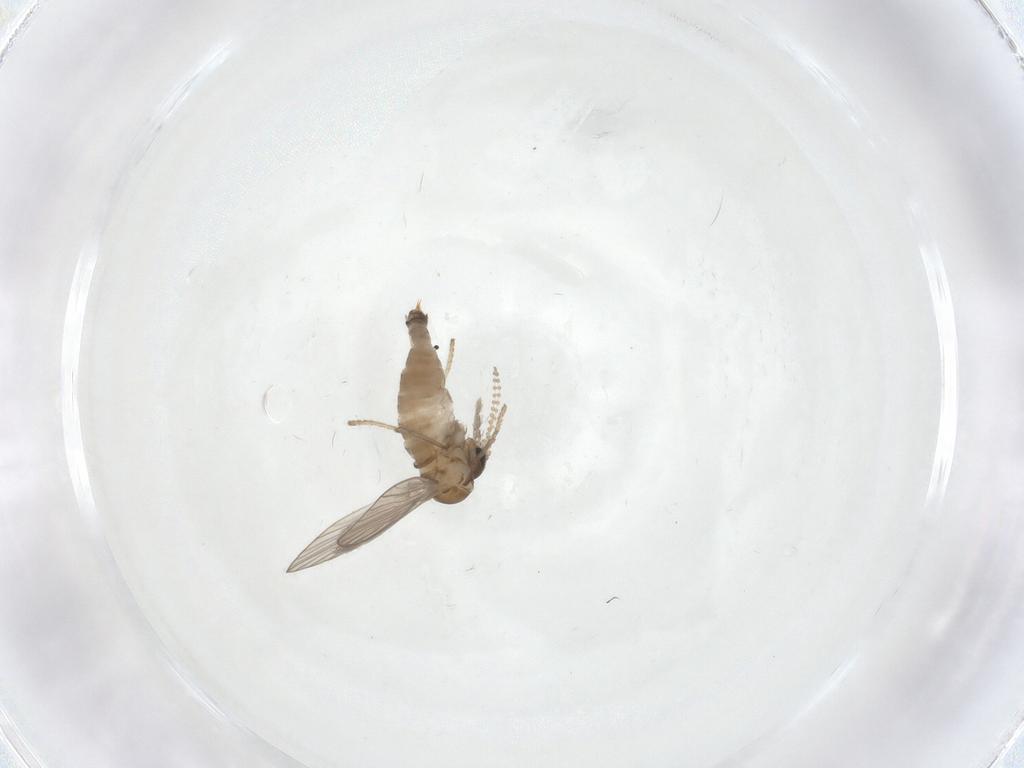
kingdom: Animalia
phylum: Arthropoda
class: Insecta
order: Diptera
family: Psychodidae
